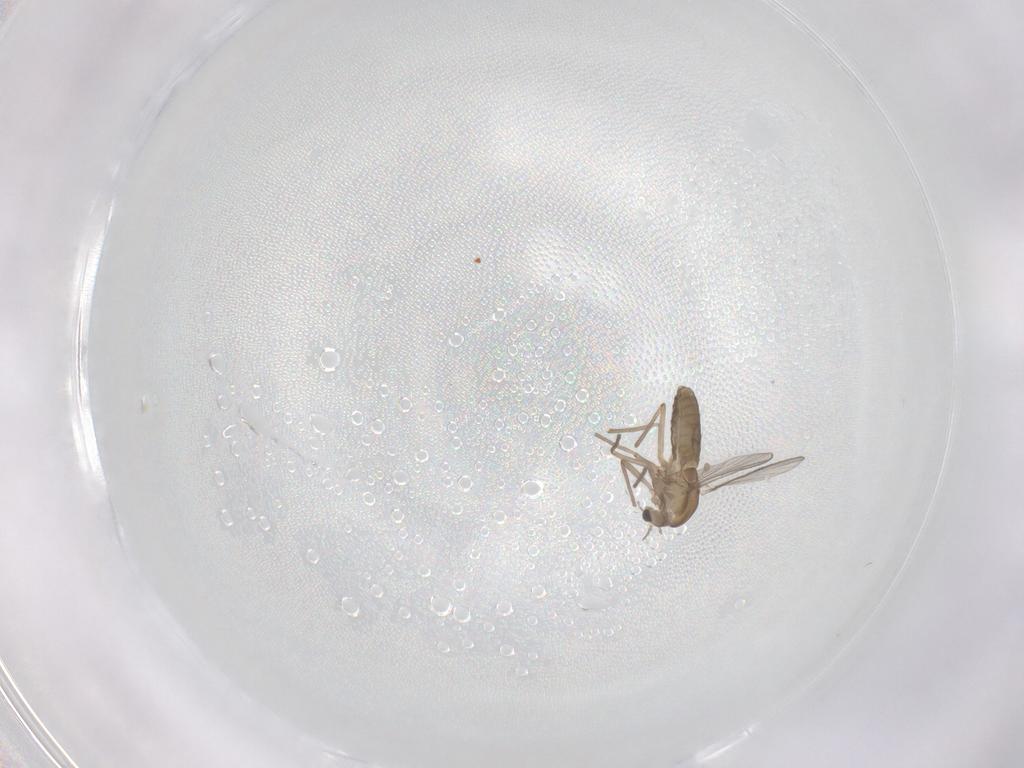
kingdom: Animalia
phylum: Arthropoda
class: Insecta
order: Diptera
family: Chironomidae
